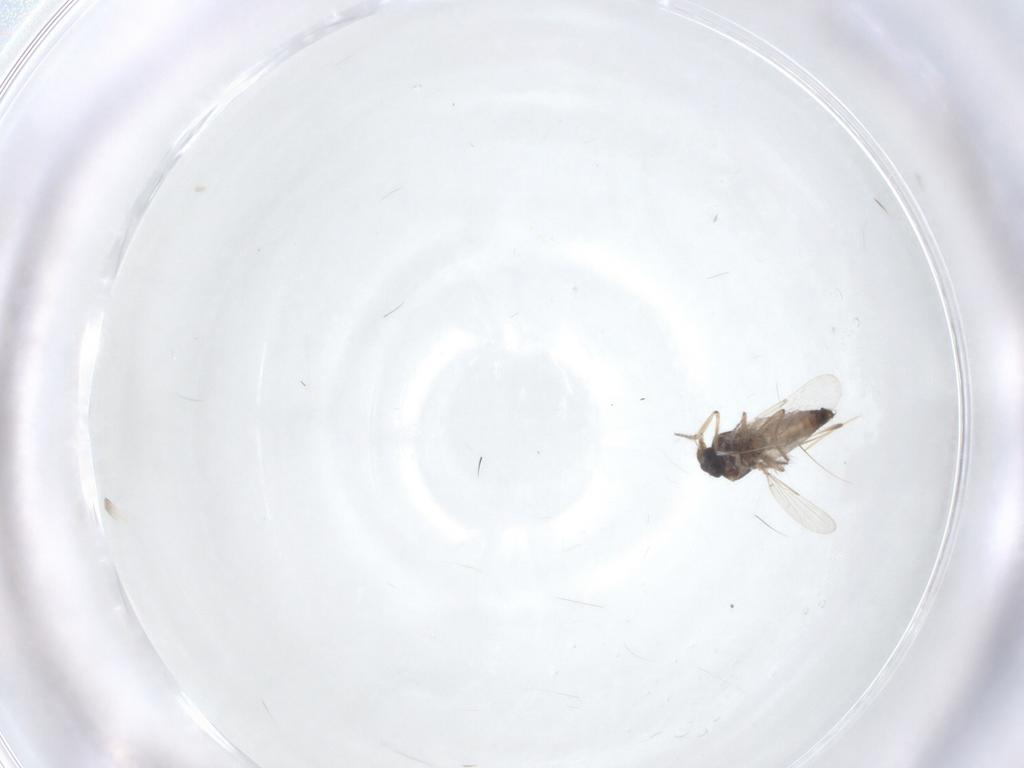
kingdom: Animalia
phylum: Arthropoda
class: Insecta
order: Diptera
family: Ceratopogonidae
